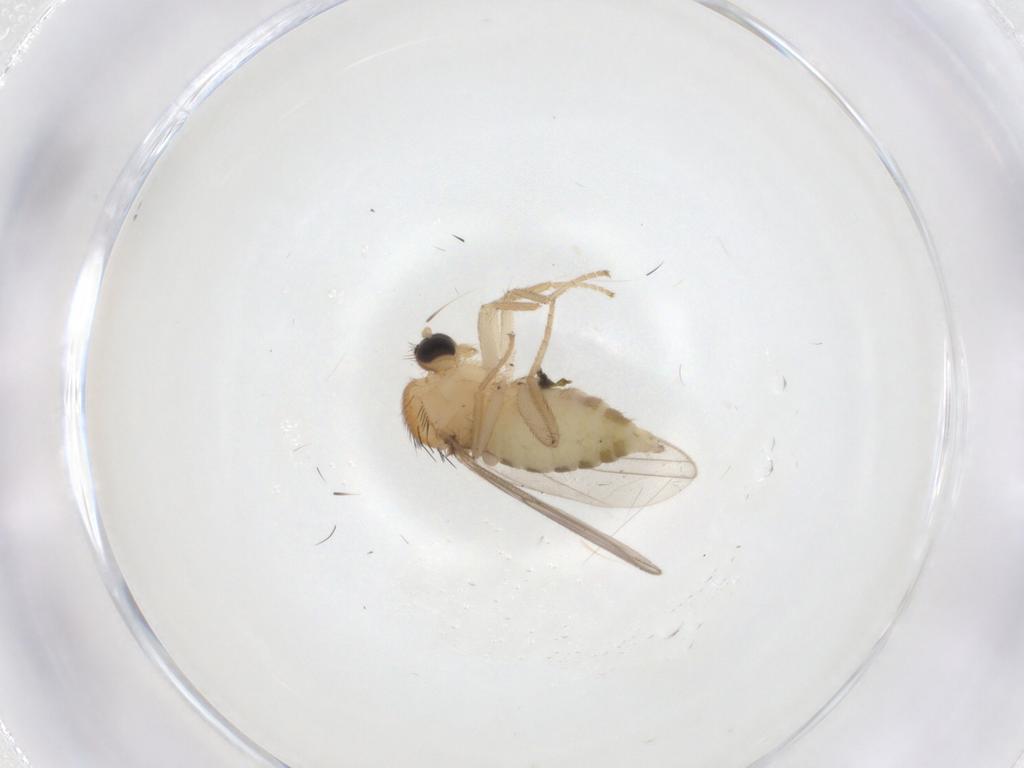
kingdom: Animalia
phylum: Arthropoda
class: Insecta
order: Diptera
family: Hybotidae
